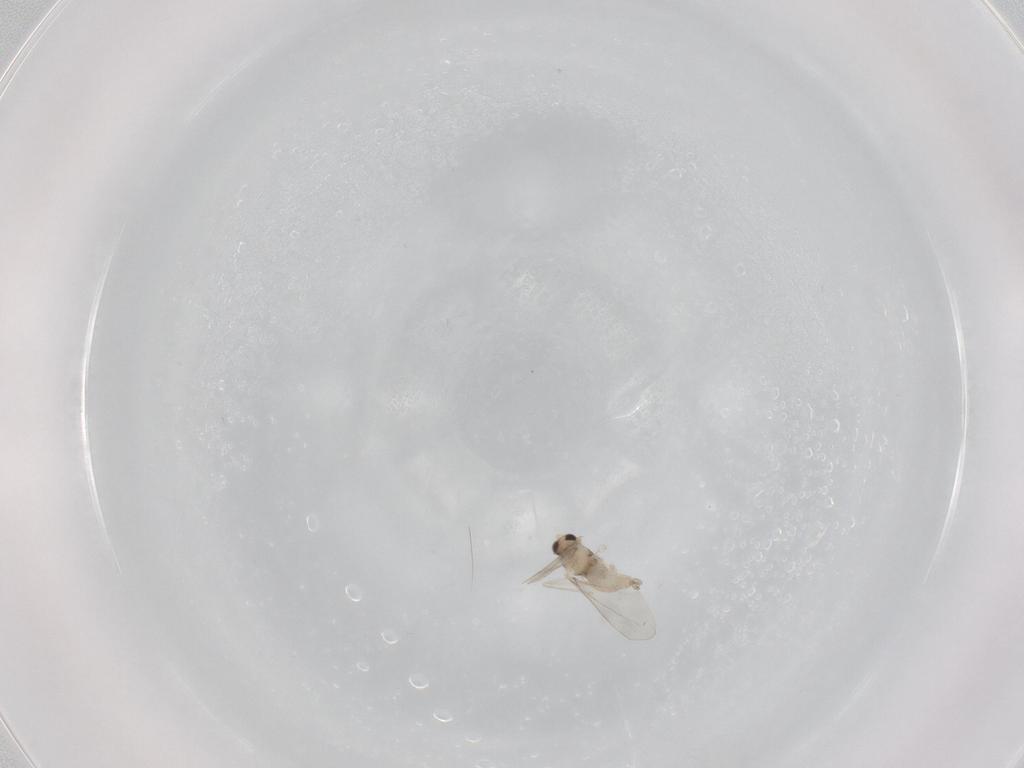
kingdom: Animalia
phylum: Arthropoda
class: Insecta
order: Diptera
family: Cecidomyiidae
